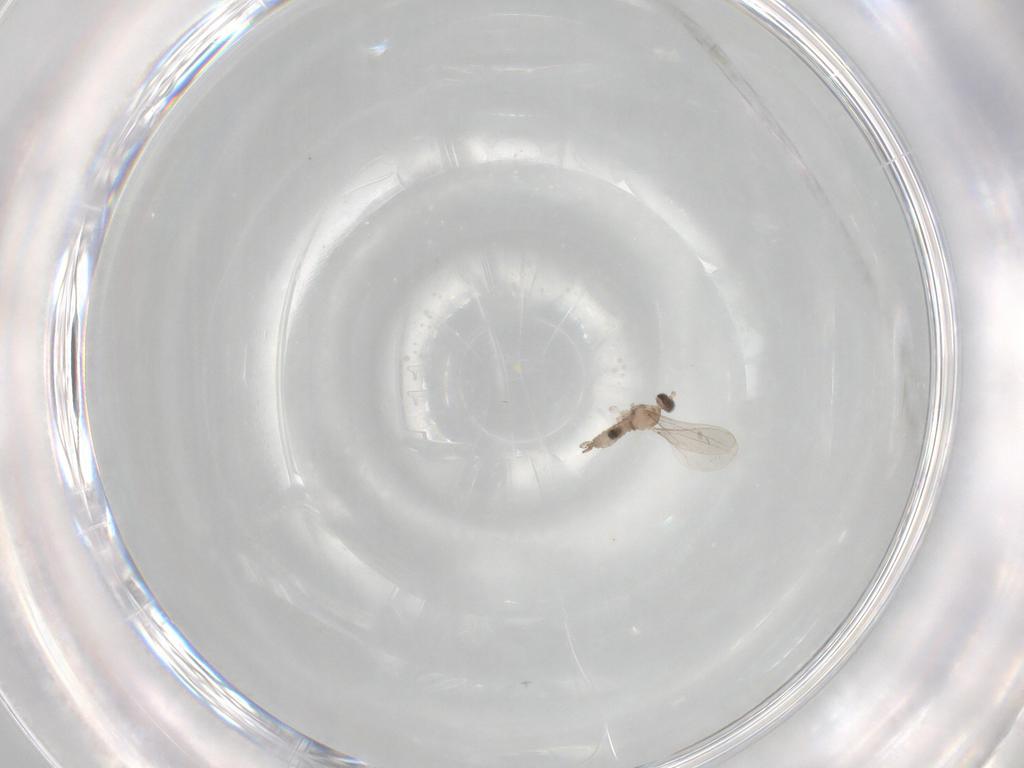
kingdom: Animalia
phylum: Arthropoda
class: Insecta
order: Diptera
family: Cecidomyiidae
